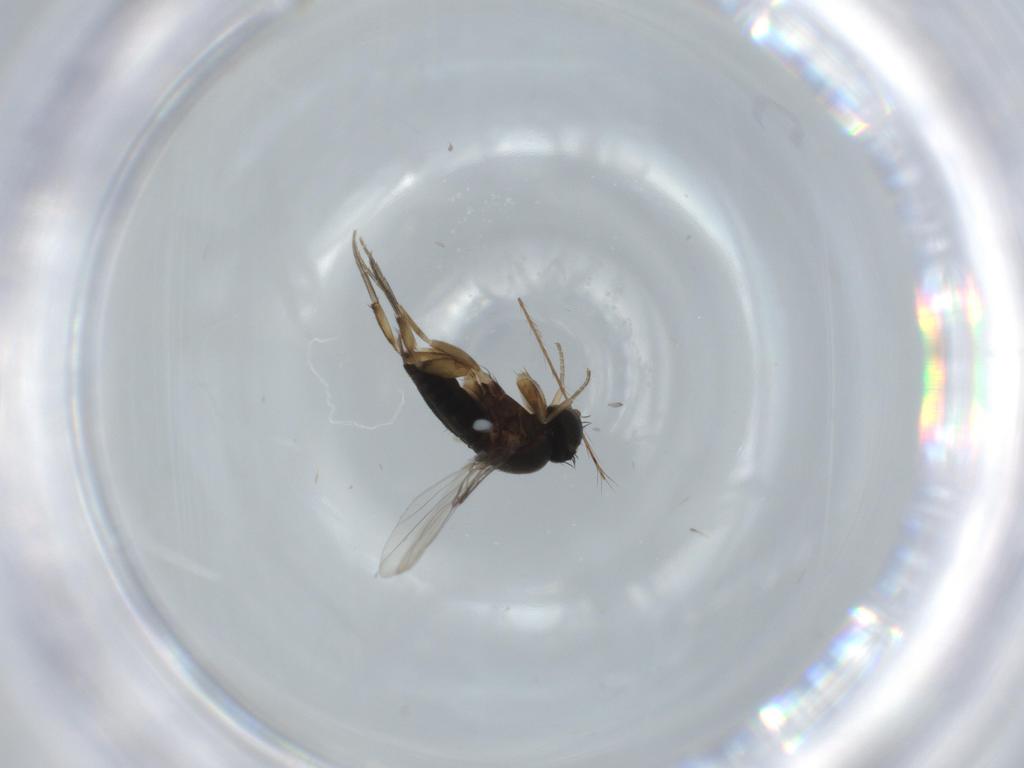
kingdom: Animalia
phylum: Arthropoda
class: Insecta
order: Diptera
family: Phoridae
